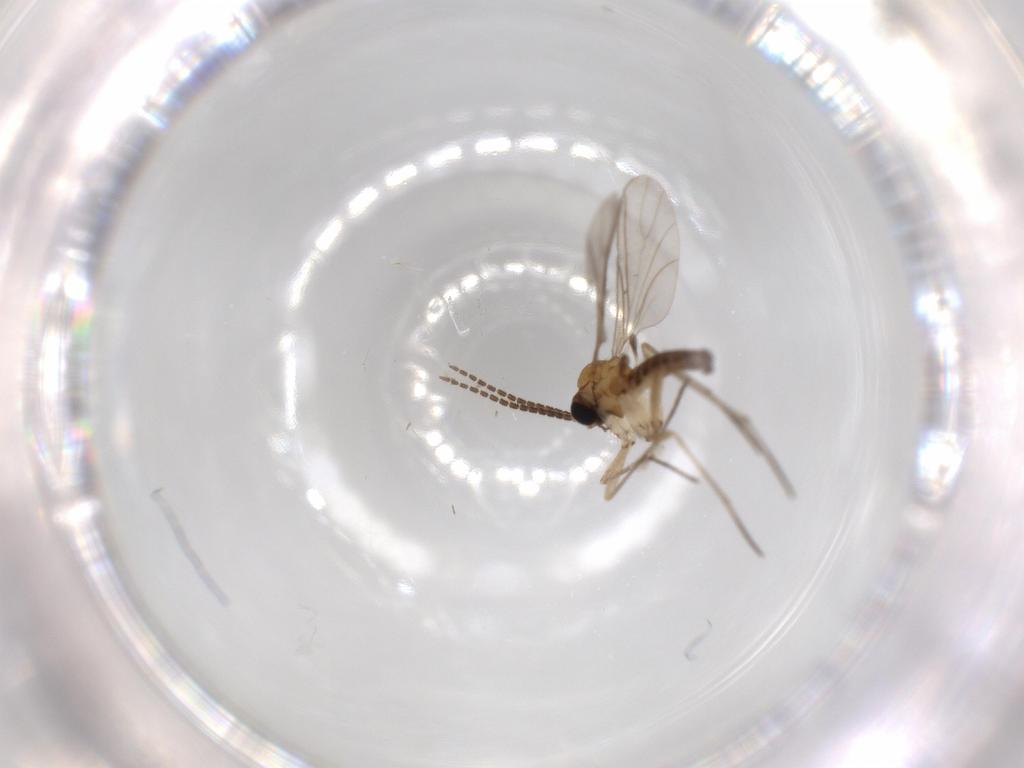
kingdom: Animalia
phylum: Arthropoda
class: Insecta
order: Diptera
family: Sciaridae
